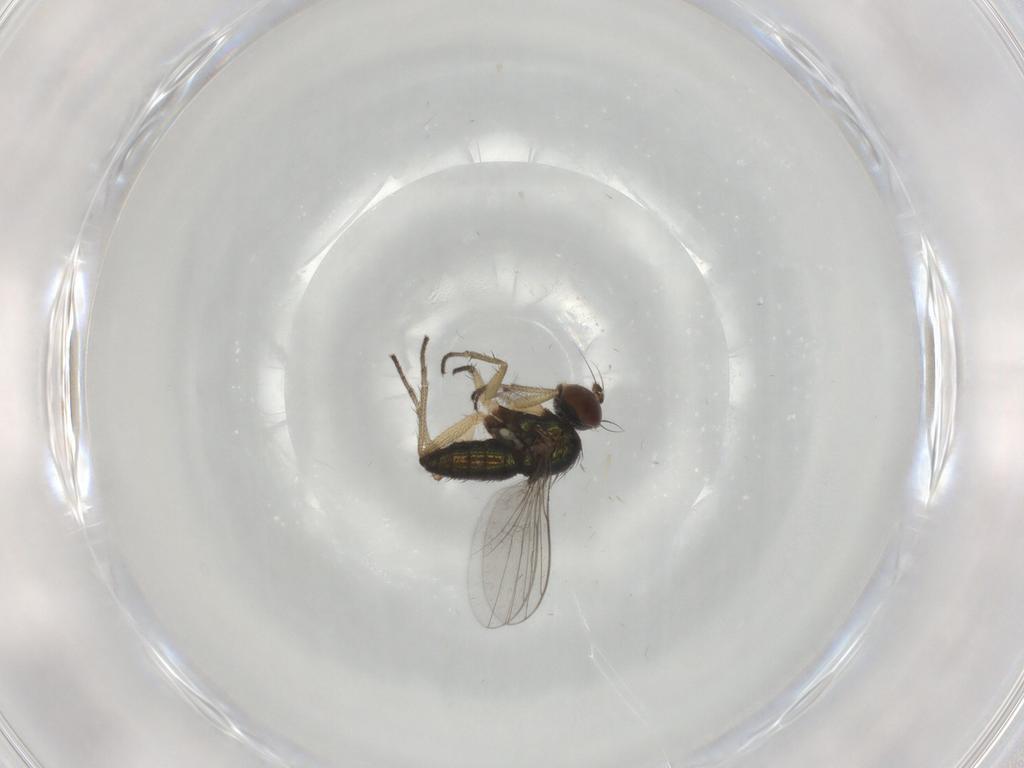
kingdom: Animalia
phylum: Arthropoda
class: Insecta
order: Diptera
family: Chironomidae
